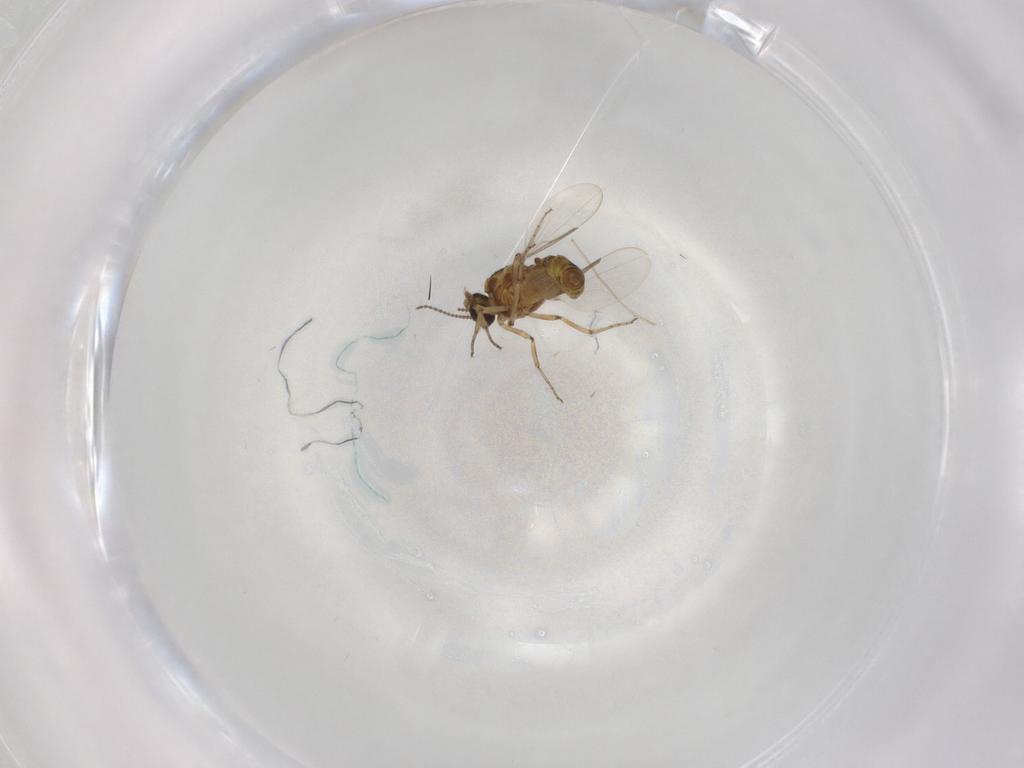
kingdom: Animalia
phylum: Arthropoda
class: Insecta
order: Diptera
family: Ceratopogonidae
